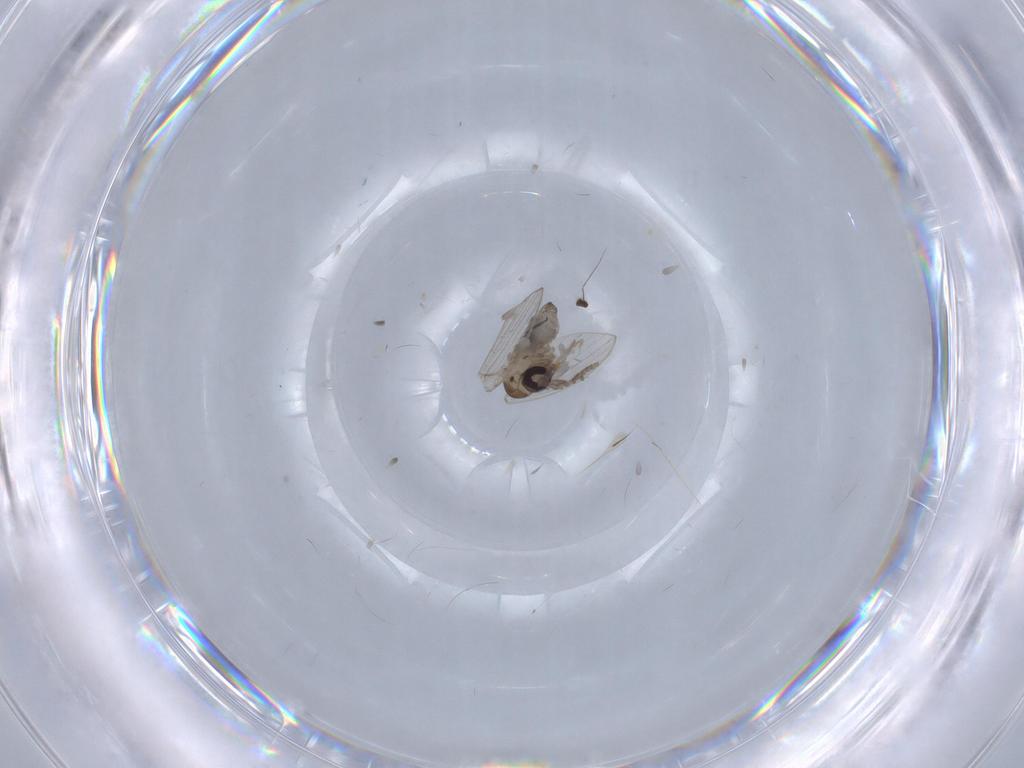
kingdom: Animalia
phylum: Arthropoda
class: Insecta
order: Diptera
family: Psychodidae
